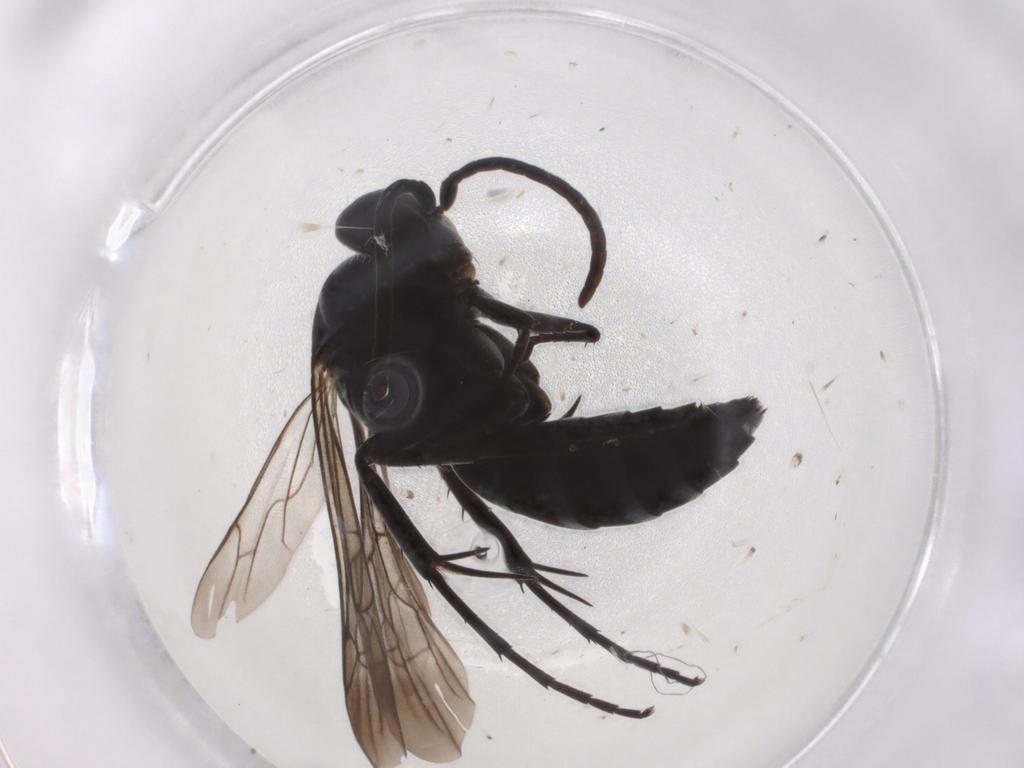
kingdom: Animalia
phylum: Arthropoda
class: Insecta
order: Hymenoptera
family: Pompilidae
